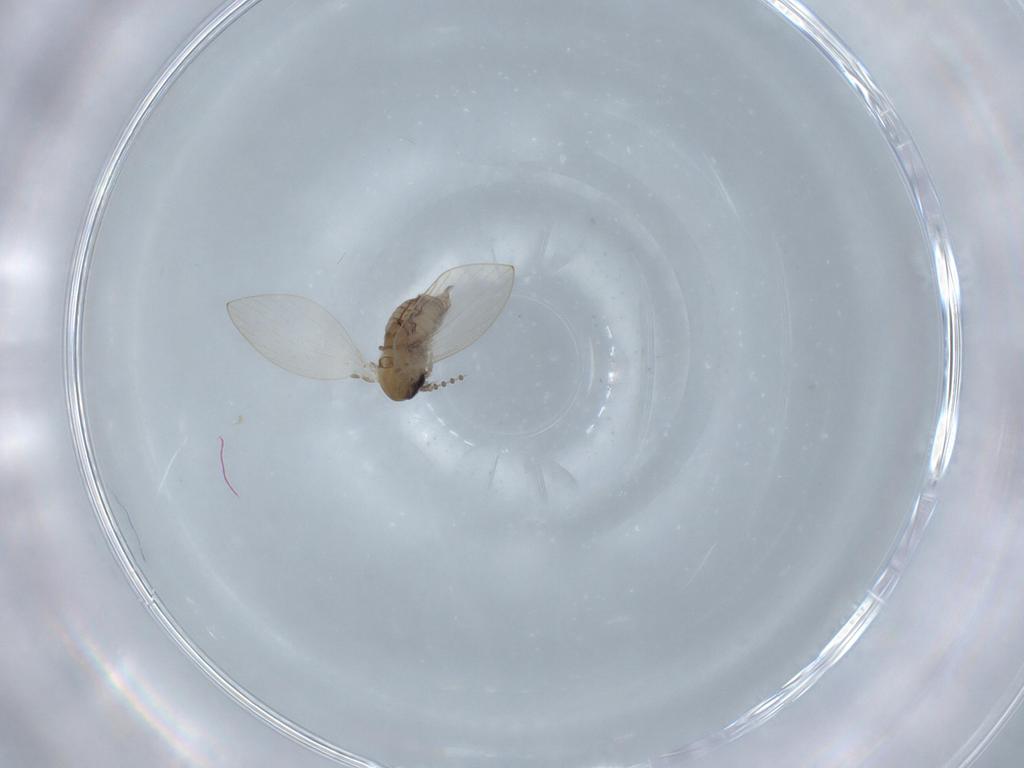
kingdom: Animalia
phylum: Arthropoda
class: Insecta
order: Diptera
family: Psychodidae
